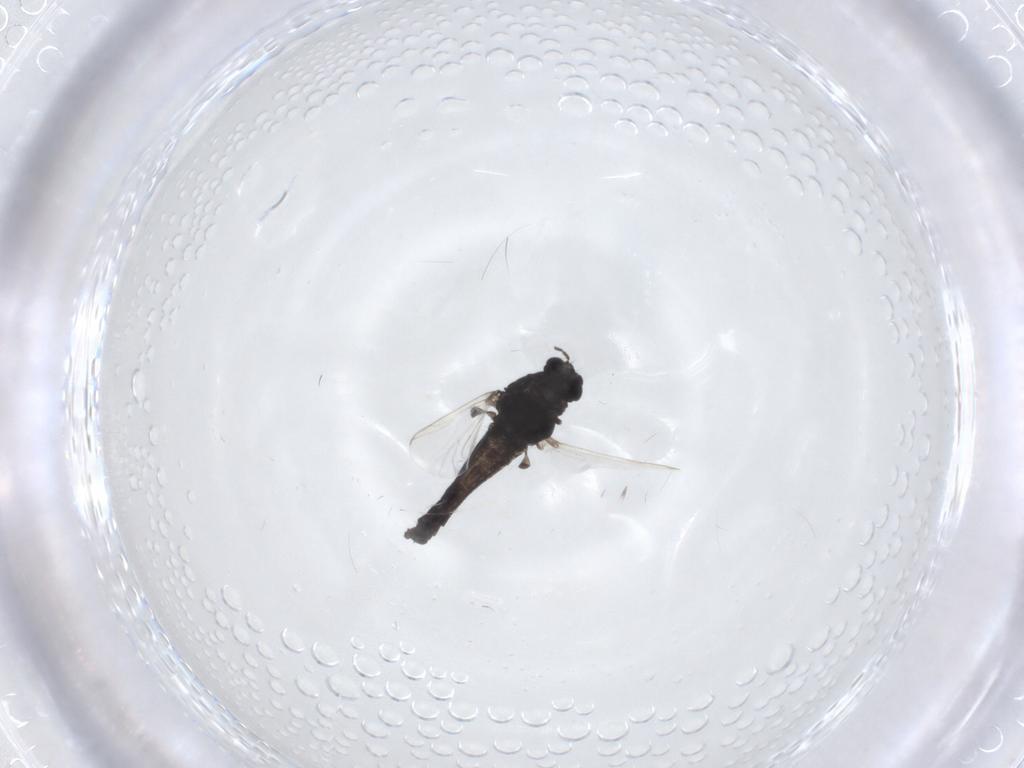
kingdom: Animalia
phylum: Arthropoda
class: Insecta
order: Diptera
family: Chironomidae
